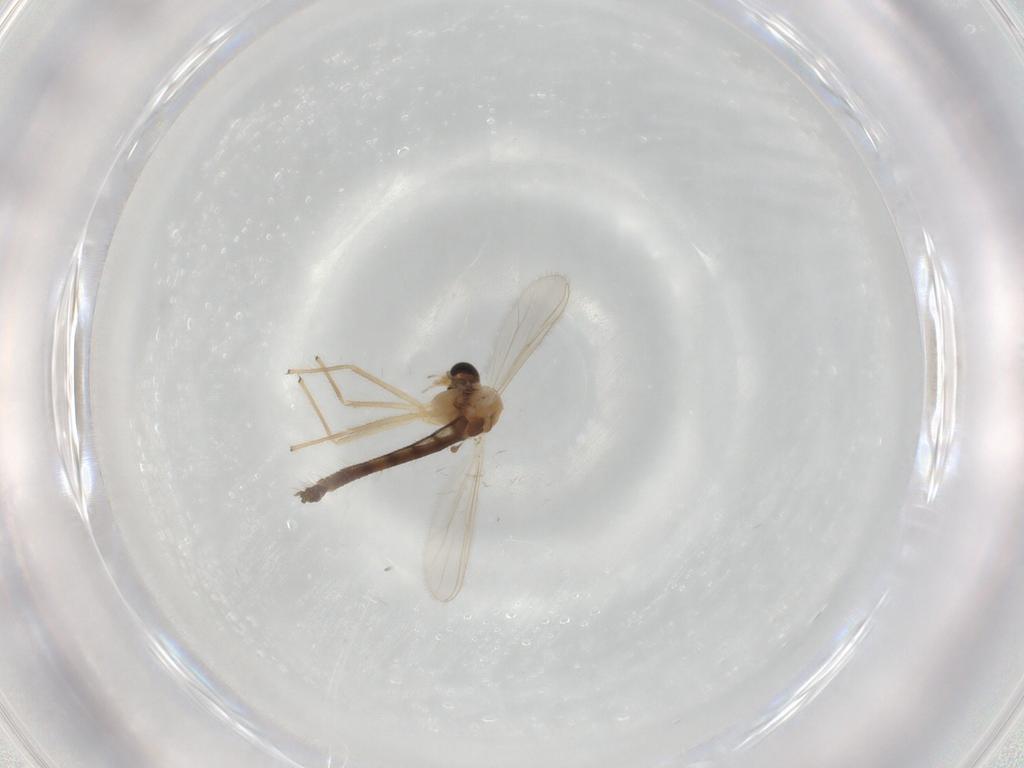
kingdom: Animalia
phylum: Arthropoda
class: Insecta
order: Diptera
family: Chironomidae
